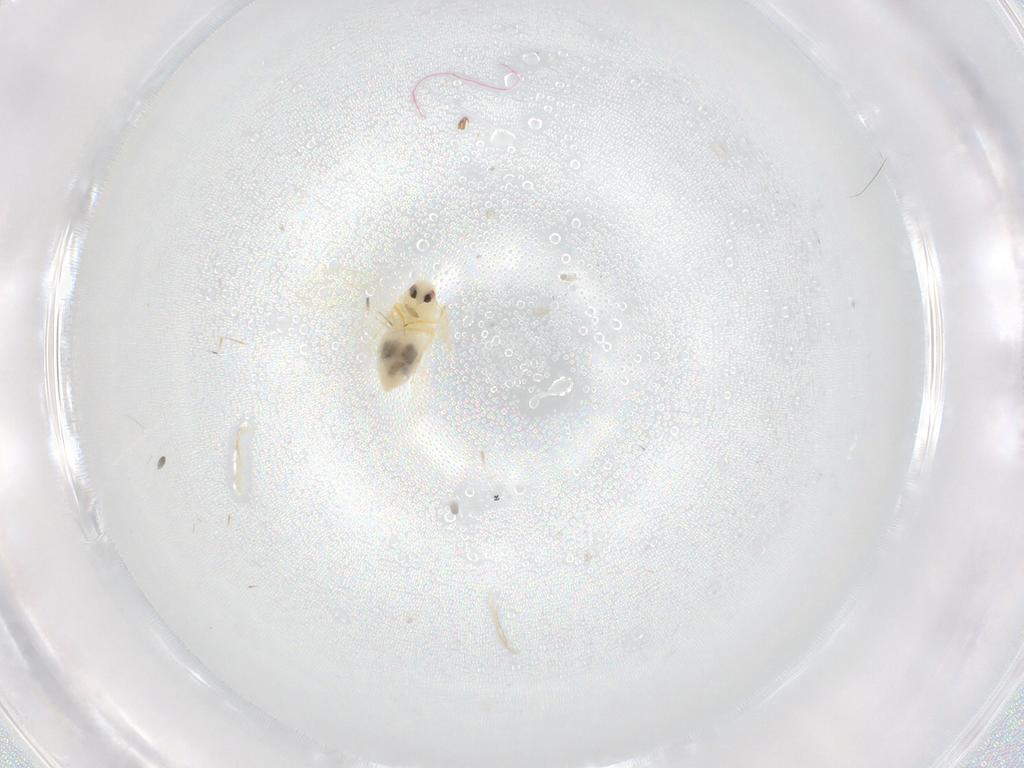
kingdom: Animalia
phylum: Arthropoda
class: Insecta
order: Hemiptera
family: Aleyrodidae
